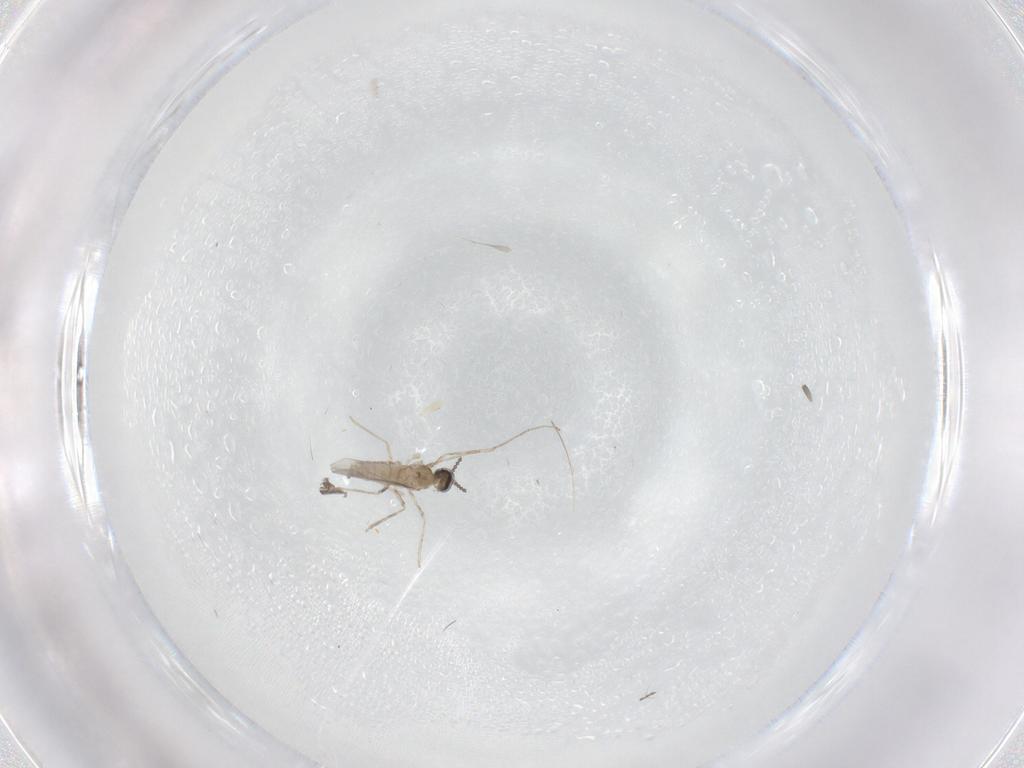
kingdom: Animalia
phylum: Arthropoda
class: Insecta
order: Diptera
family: Cecidomyiidae
